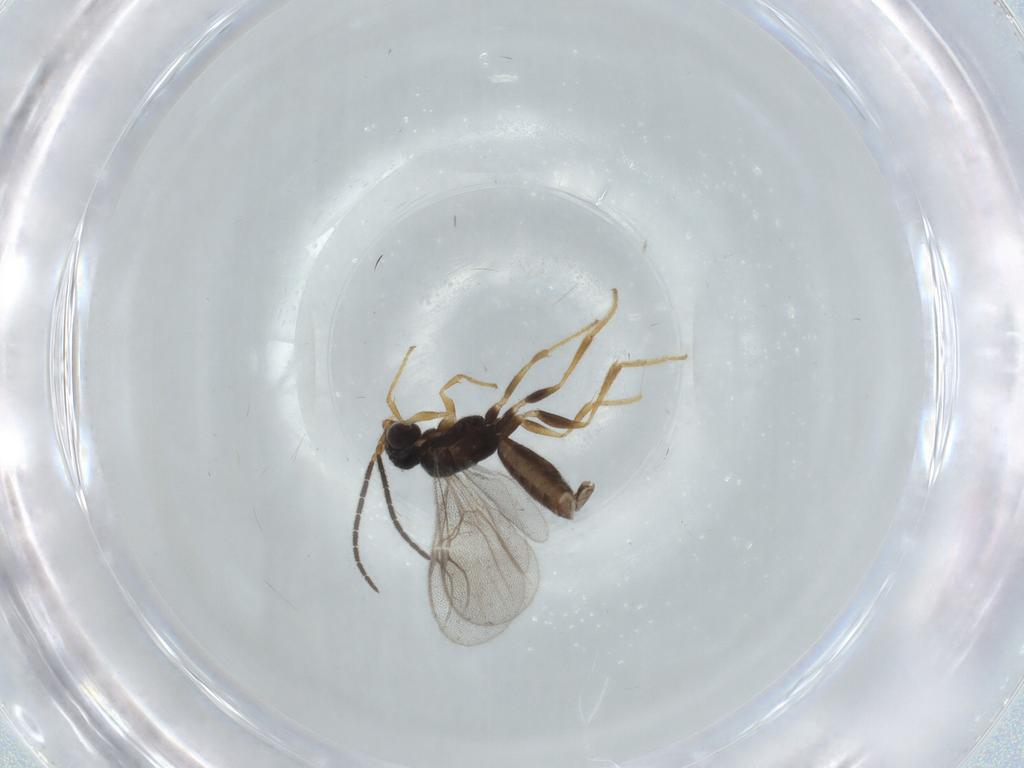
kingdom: Animalia
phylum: Arthropoda
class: Insecta
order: Hymenoptera
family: Dryinidae
